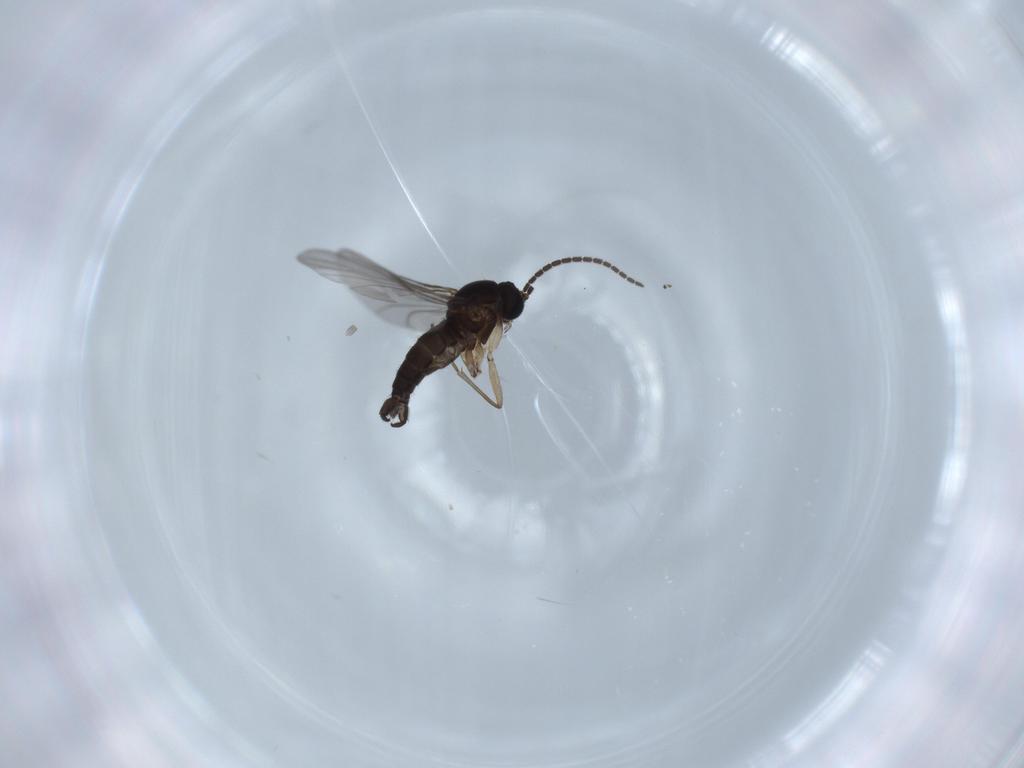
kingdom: Animalia
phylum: Arthropoda
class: Insecta
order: Diptera
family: Sciaridae
